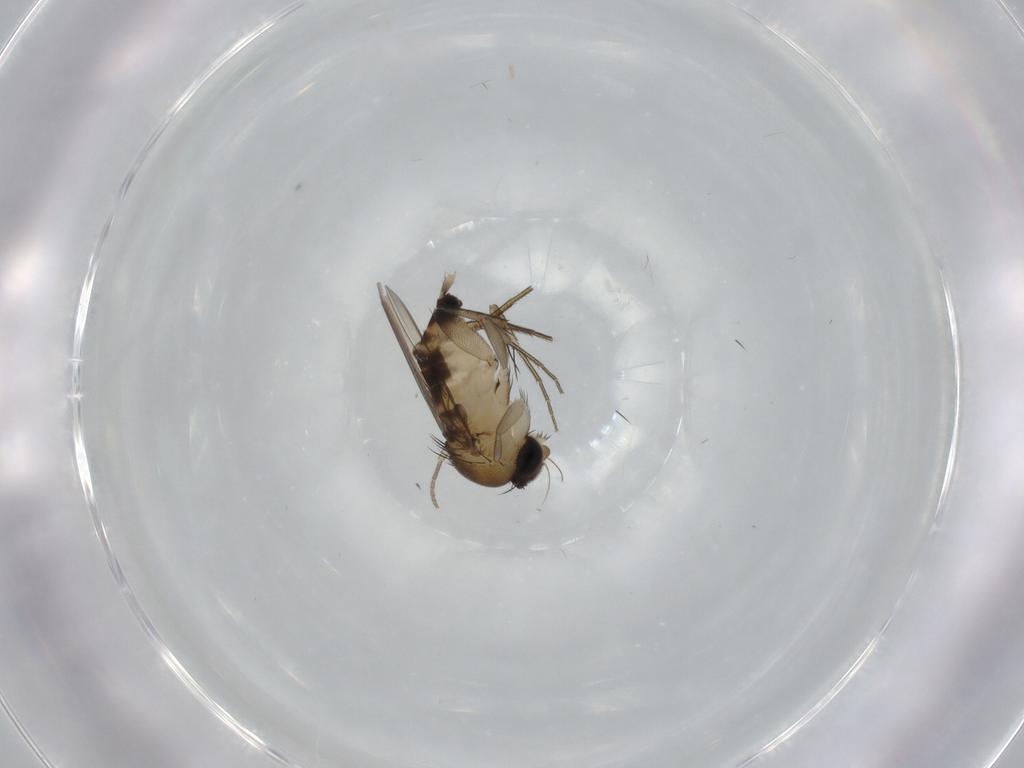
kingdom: Animalia
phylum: Arthropoda
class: Insecta
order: Diptera
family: Phoridae
